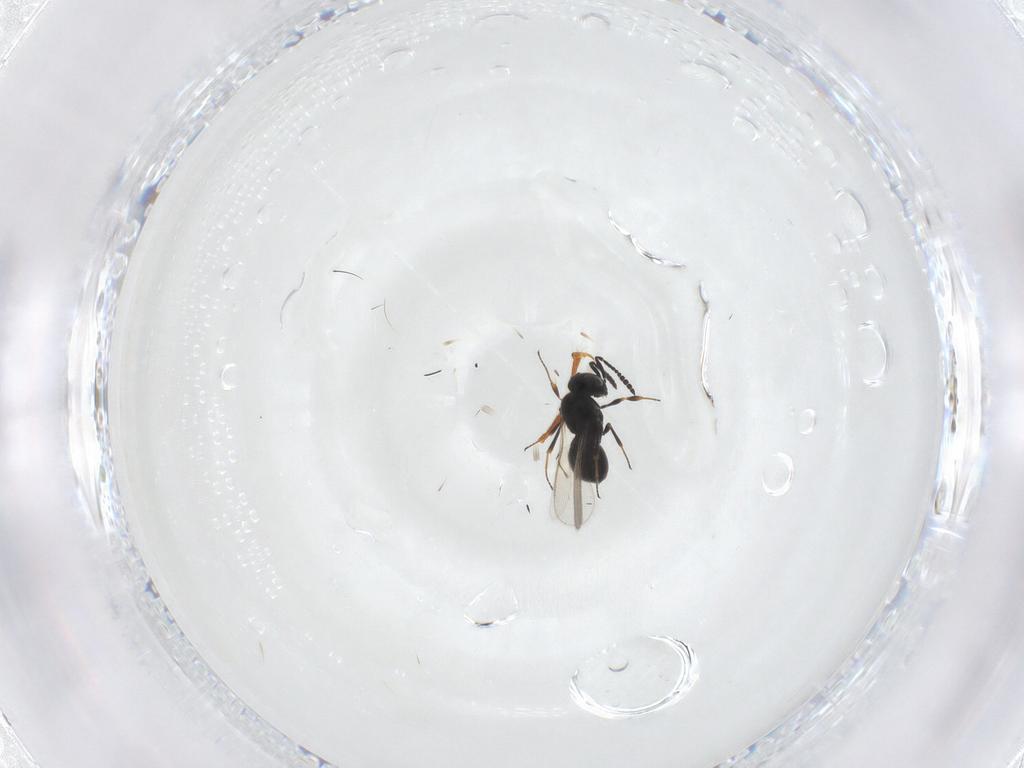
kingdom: Animalia
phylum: Arthropoda
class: Insecta
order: Hymenoptera
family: Scelionidae
